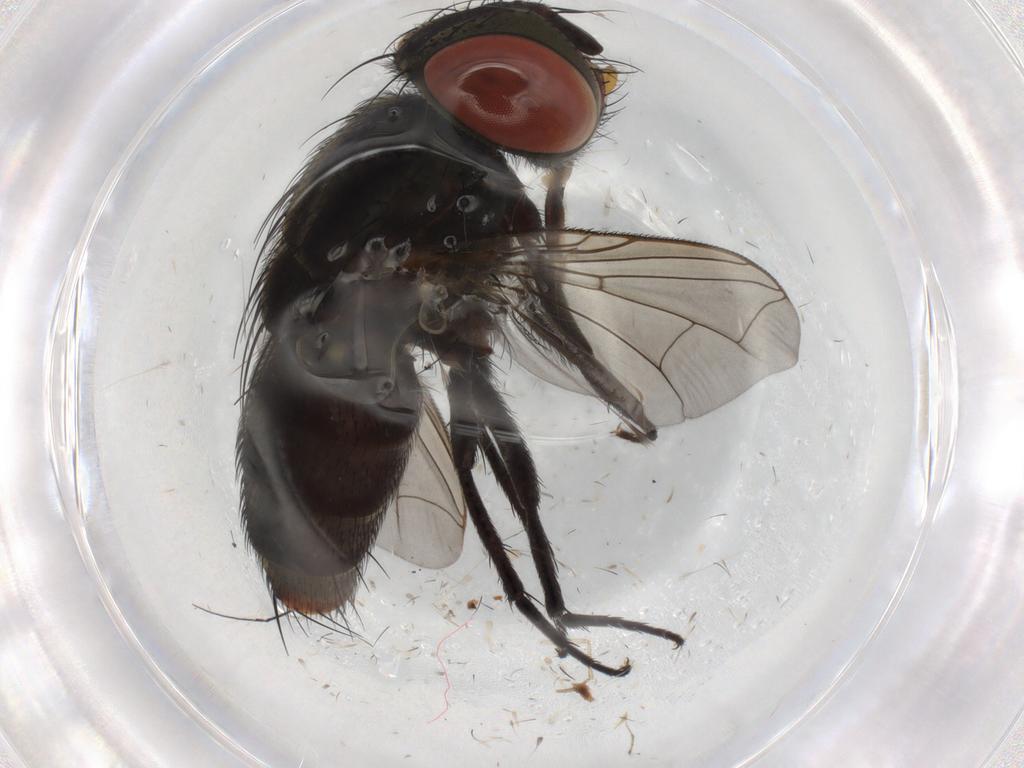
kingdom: Animalia
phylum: Arthropoda
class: Insecta
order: Diptera
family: Sarcophagidae
